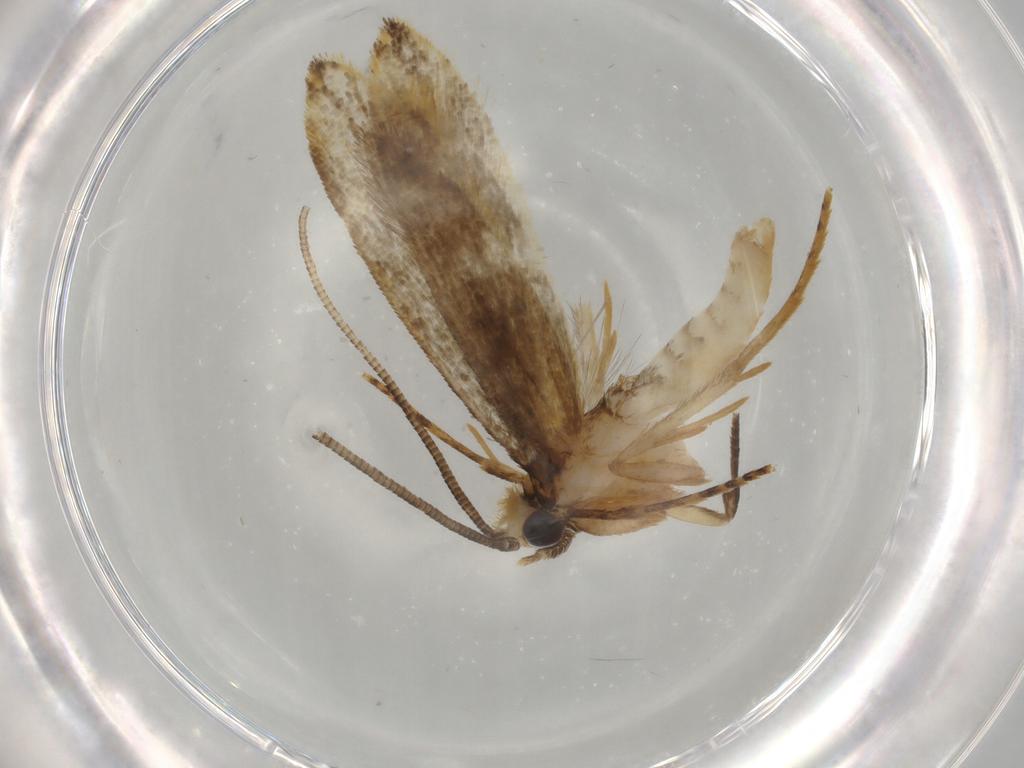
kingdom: Animalia
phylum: Arthropoda
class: Insecta
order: Lepidoptera
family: Tineidae
